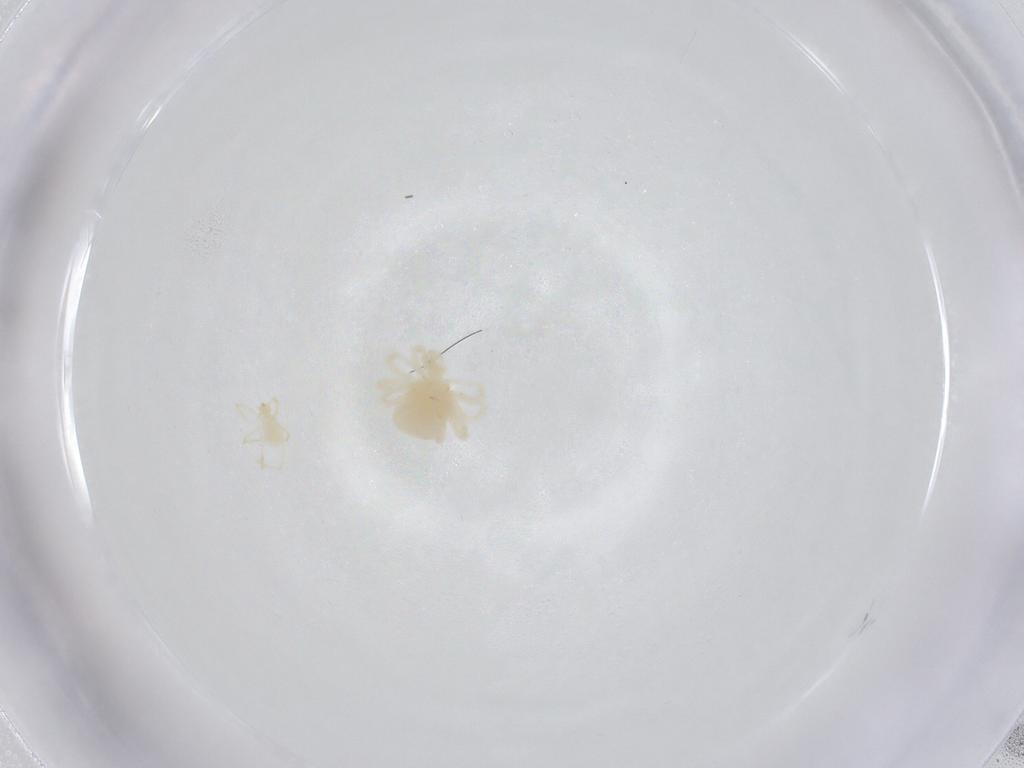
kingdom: Animalia
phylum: Arthropoda
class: Arachnida
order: Trombidiformes
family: Anystidae
